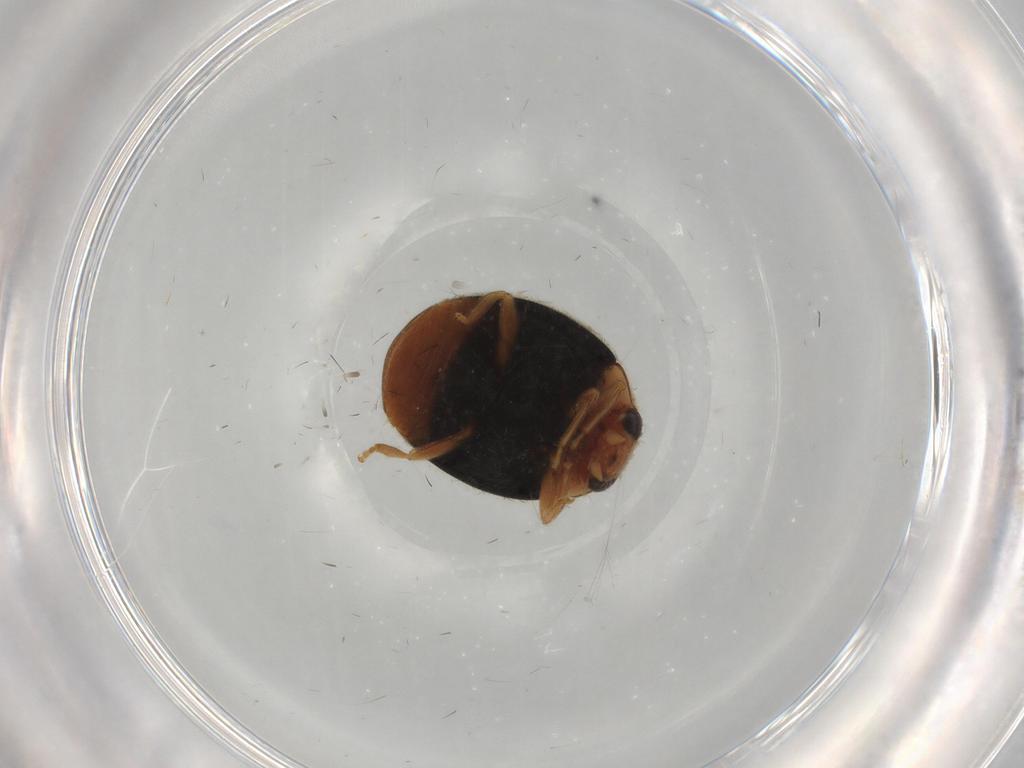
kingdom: Animalia
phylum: Arthropoda
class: Insecta
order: Coleoptera
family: Coccinellidae
